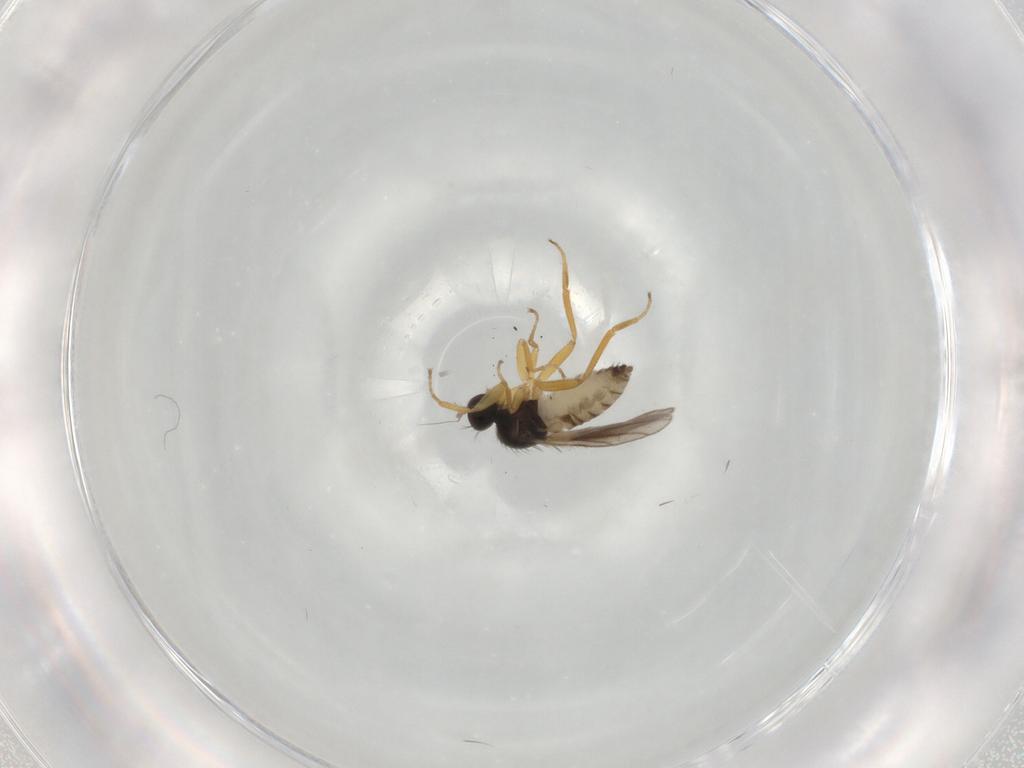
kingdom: Animalia
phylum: Arthropoda
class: Insecta
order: Diptera
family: Hybotidae
